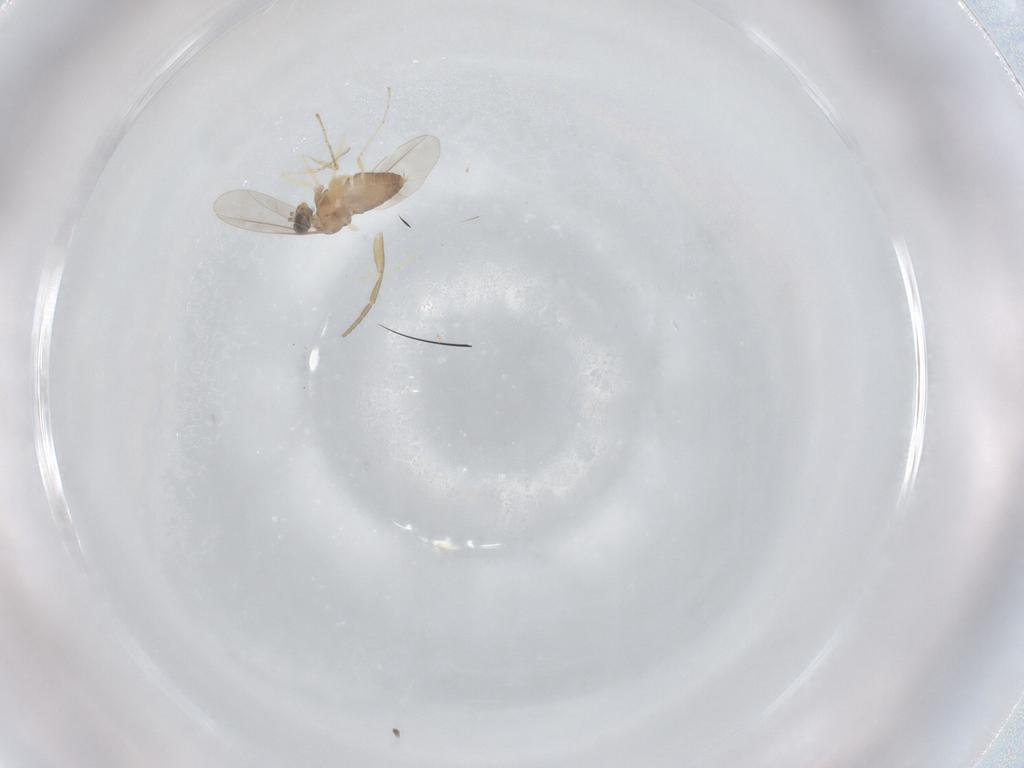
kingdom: Animalia
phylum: Arthropoda
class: Insecta
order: Diptera
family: Cecidomyiidae
